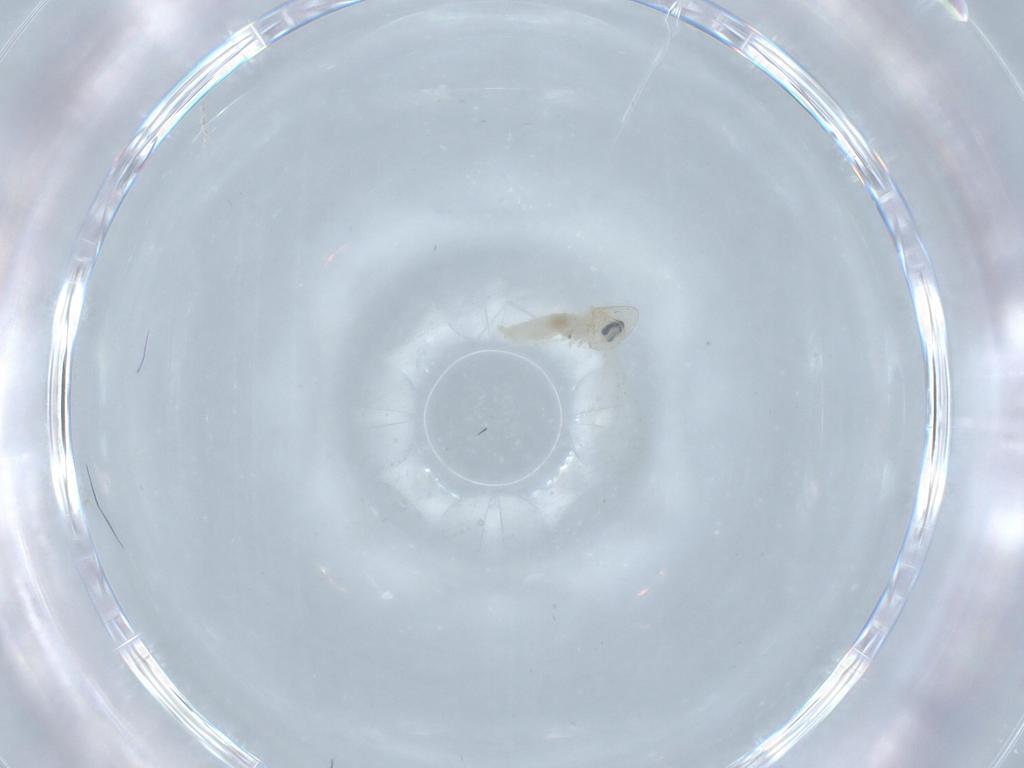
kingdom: Animalia
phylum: Arthropoda
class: Insecta
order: Diptera
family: Cecidomyiidae
